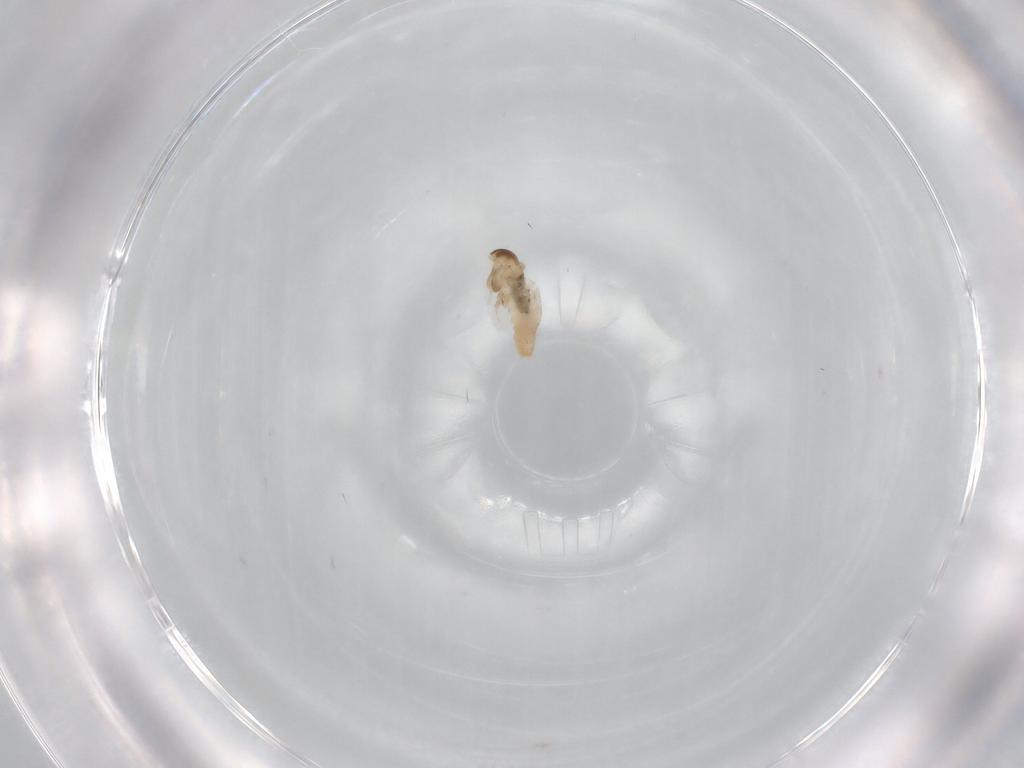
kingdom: Animalia
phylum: Arthropoda
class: Insecta
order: Diptera
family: Cecidomyiidae
